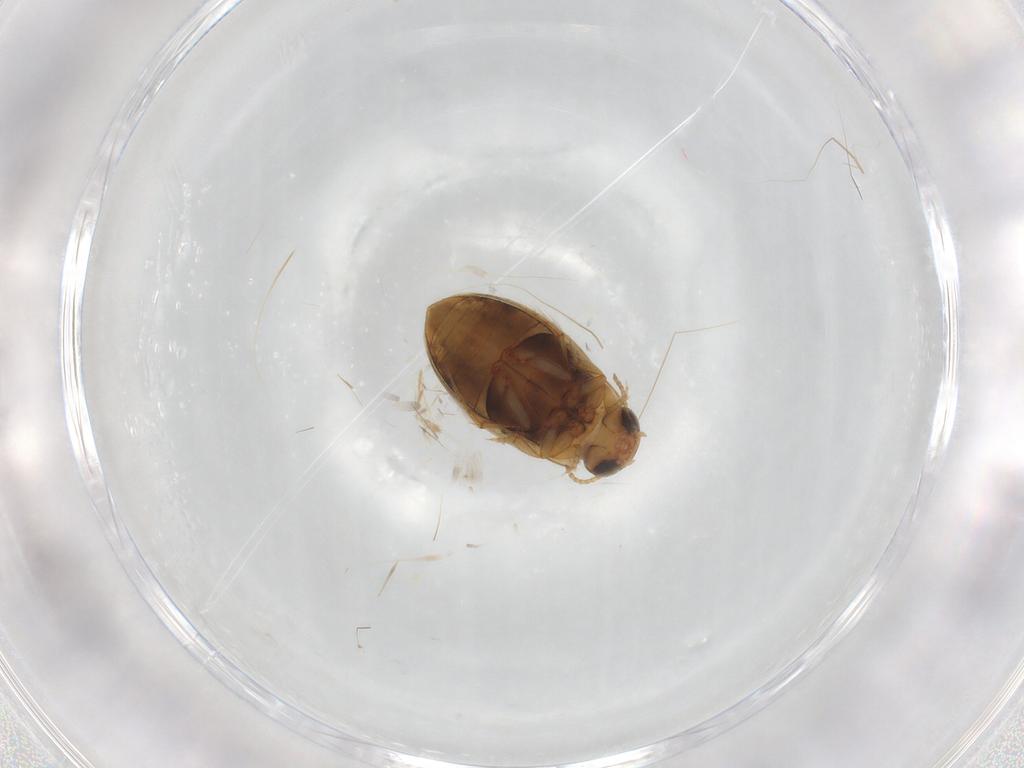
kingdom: Animalia
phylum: Arthropoda
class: Insecta
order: Coleoptera
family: Staphylinidae
